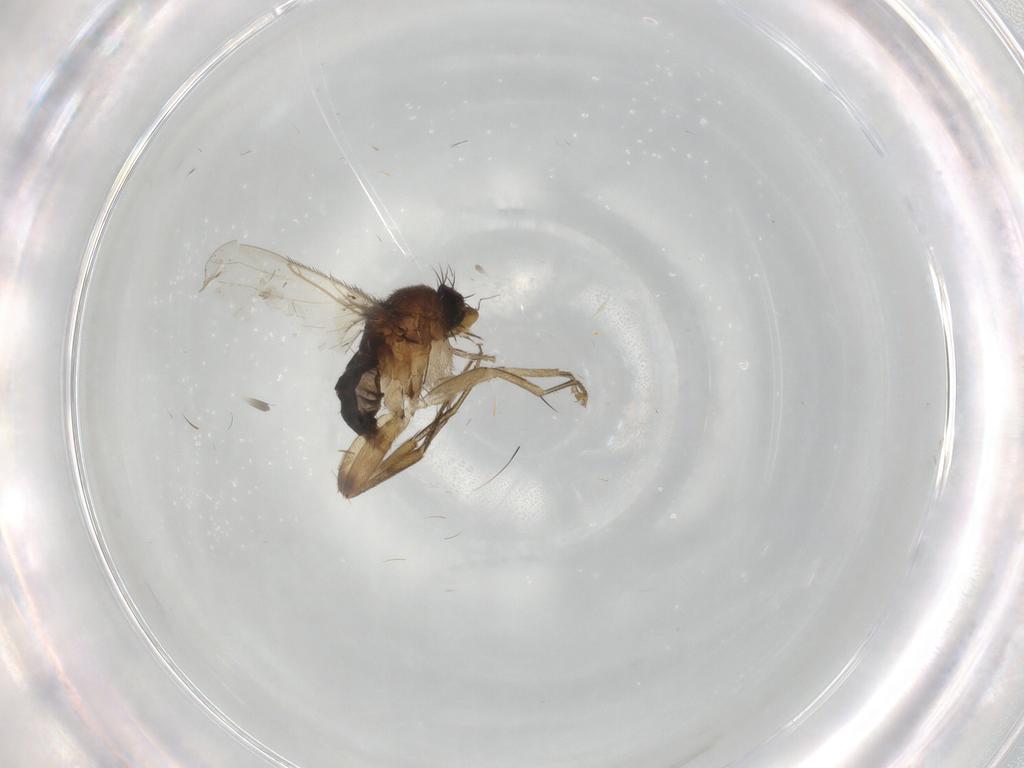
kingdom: Animalia
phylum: Arthropoda
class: Insecta
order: Diptera
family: Phoridae
